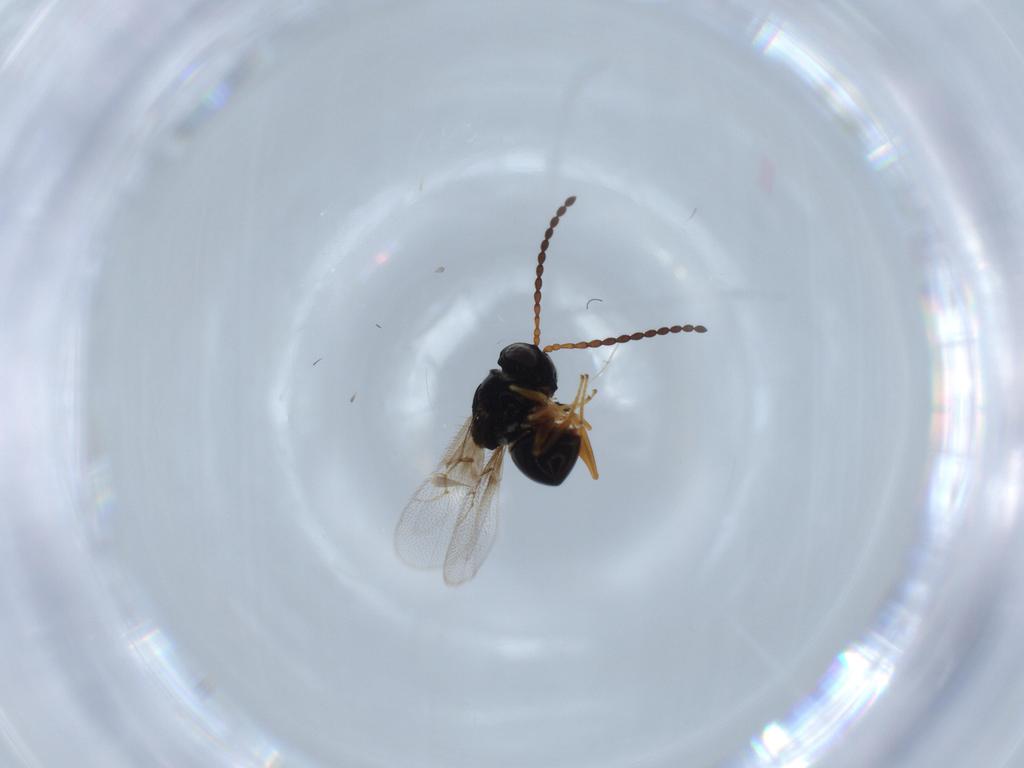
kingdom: Animalia
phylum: Arthropoda
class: Insecta
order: Hymenoptera
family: Figitidae
